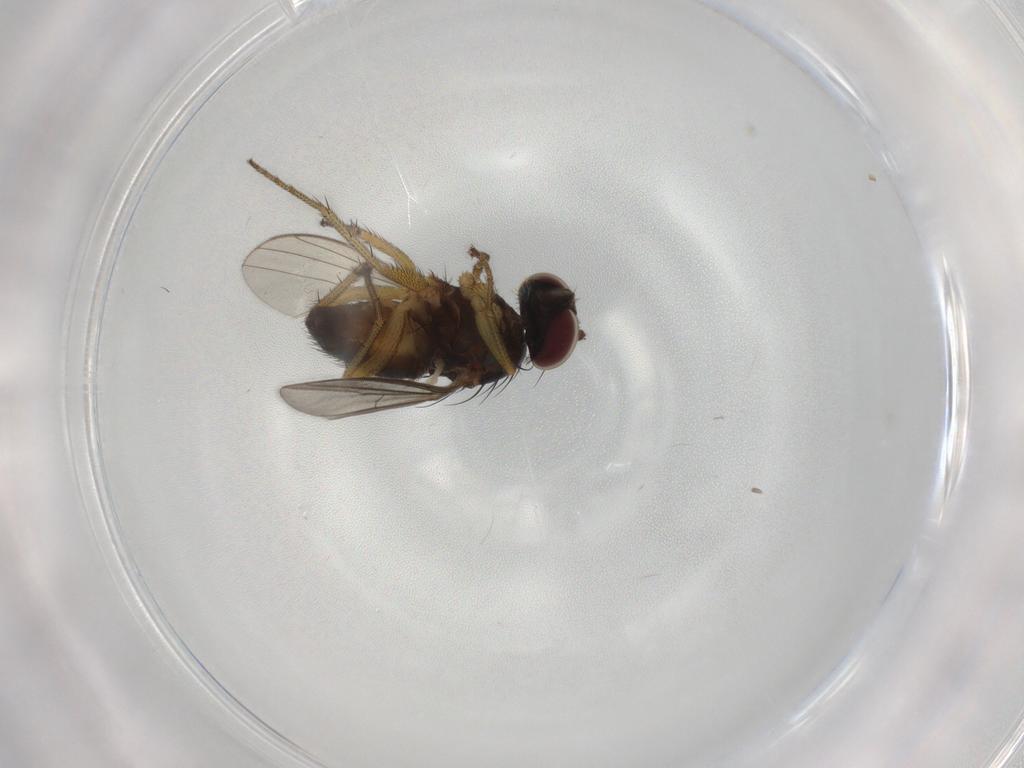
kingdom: Animalia
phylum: Arthropoda
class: Insecta
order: Diptera
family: Dolichopodidae
